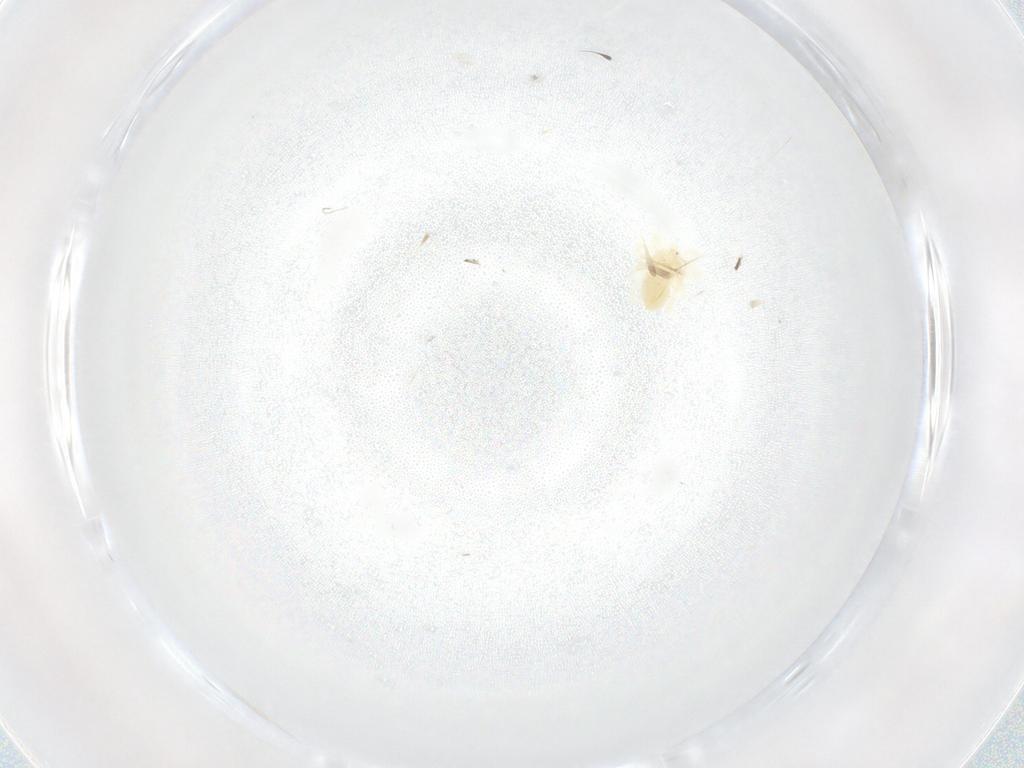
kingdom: Animalia
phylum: Arthropoda
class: Arachnida
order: Trombidiformes
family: Anystidae
